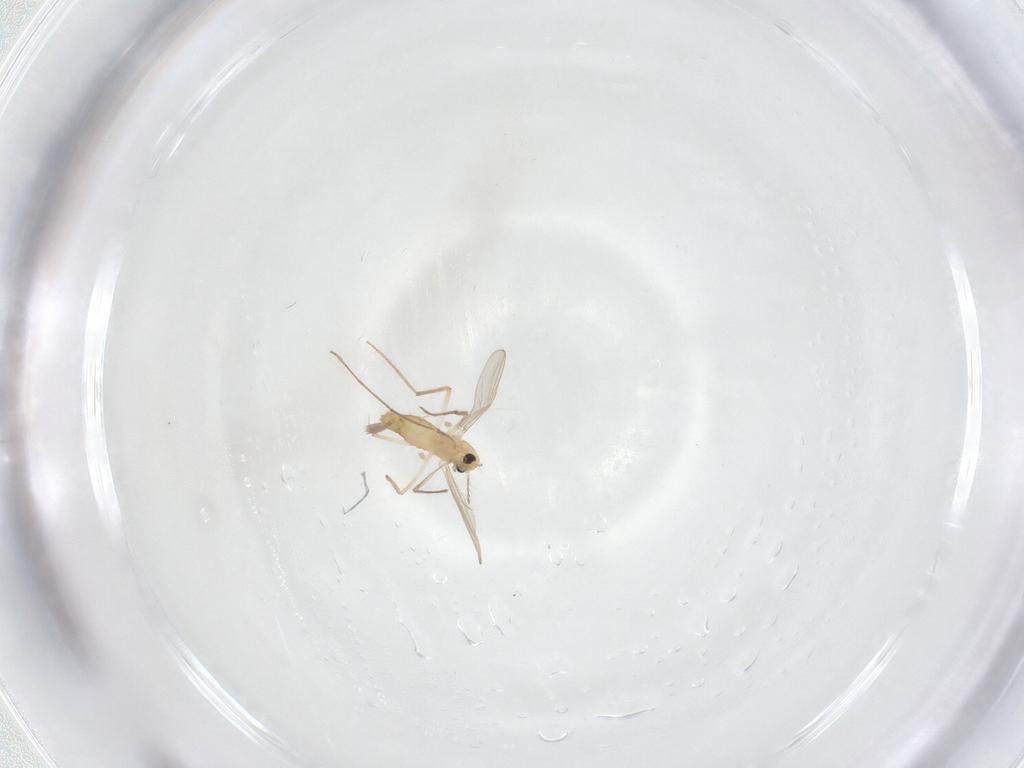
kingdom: Animalia
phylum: Arthropoda
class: Insecta
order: Diptera
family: Chironomidae
